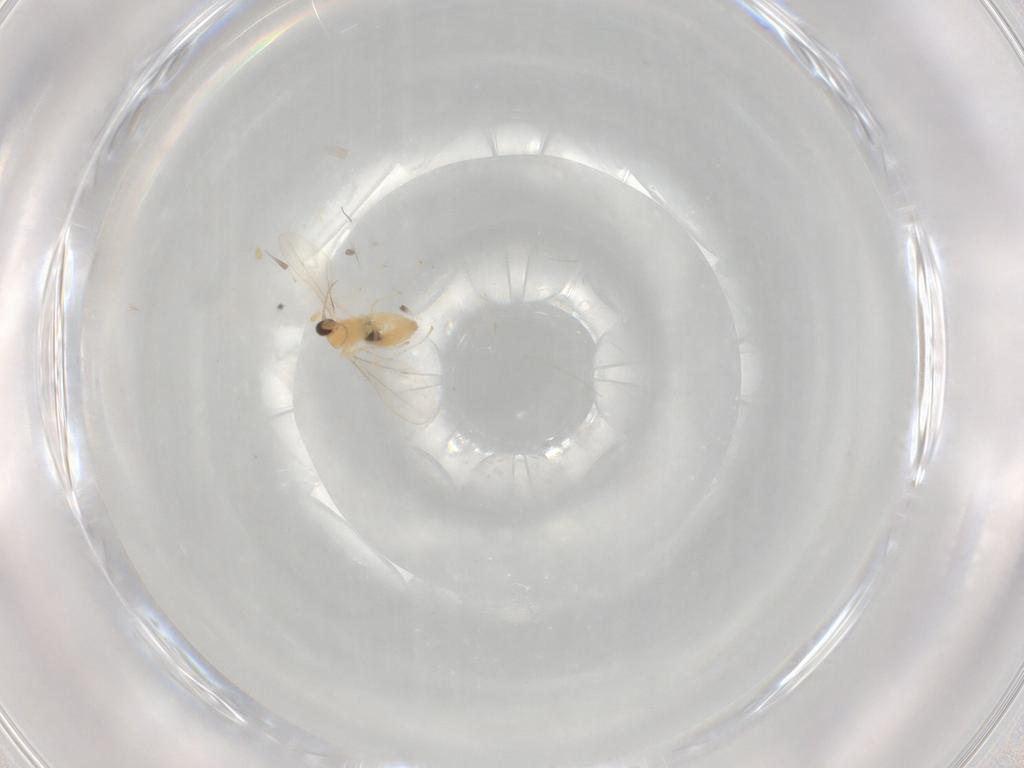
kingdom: Animalia
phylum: Arthropoda
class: Insecta
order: Diptera
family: Cecidomyiidae
